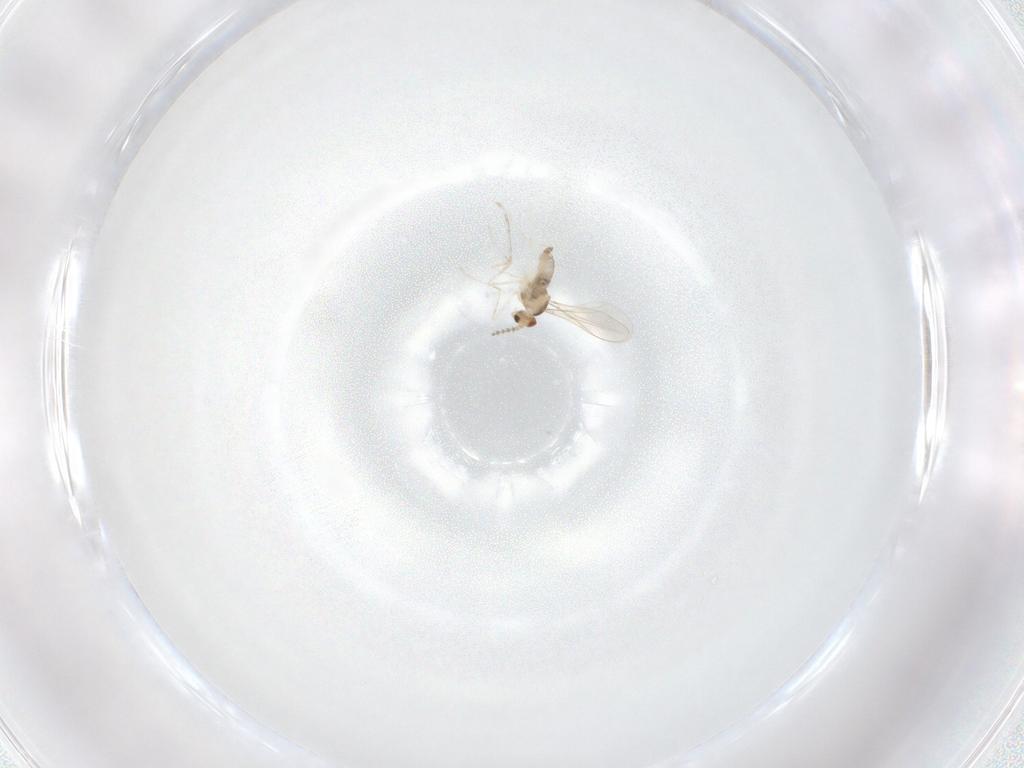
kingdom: Animalia
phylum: Arthropoda
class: Insecta
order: Diptera
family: Cecidomyiidae
